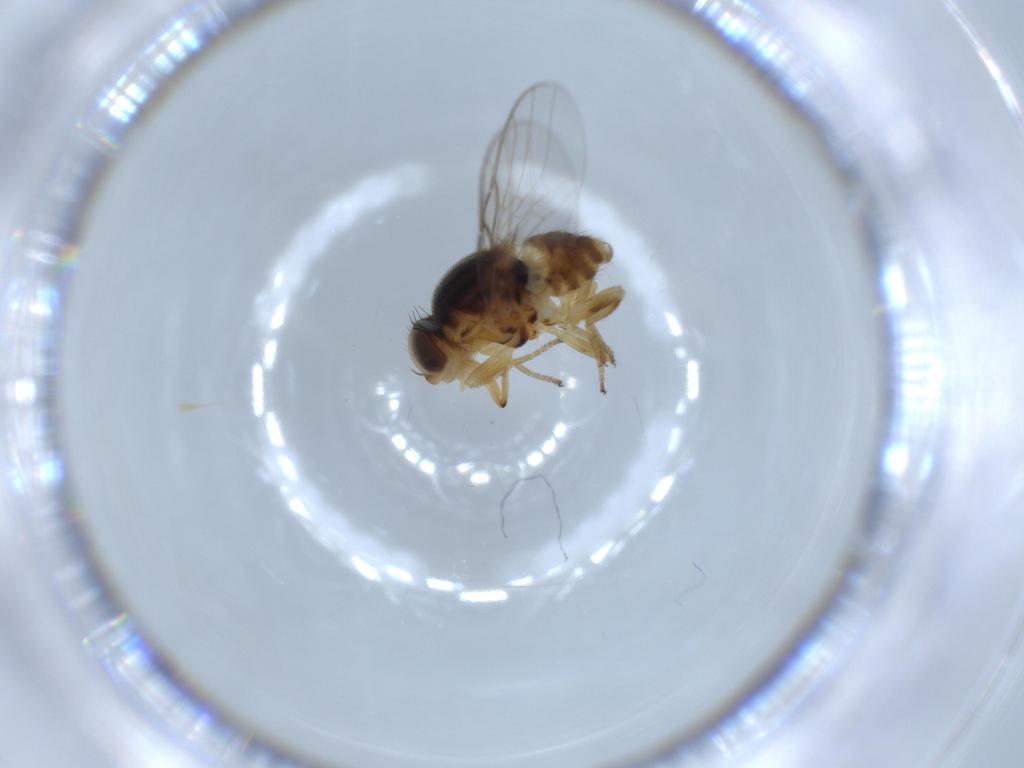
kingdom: Animalia
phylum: Arthropoda
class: Insecta
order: Diptera
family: Chloropidae
